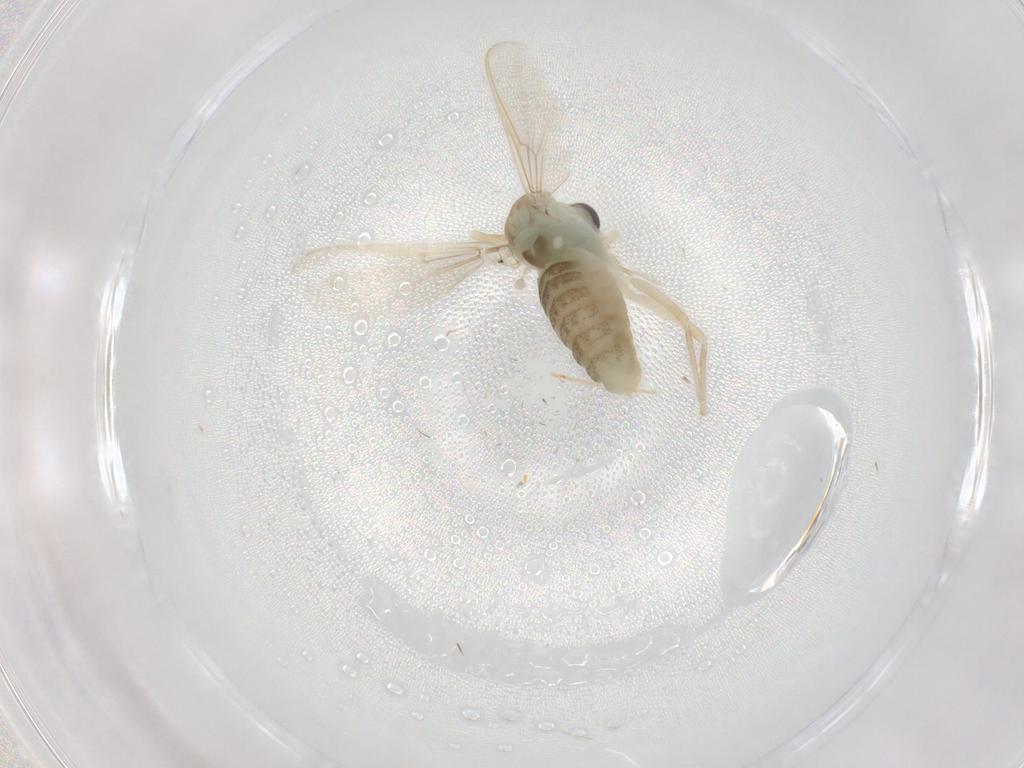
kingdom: Animalia
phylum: Arthropoda
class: Insecta
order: Diptera
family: Chironomidae
